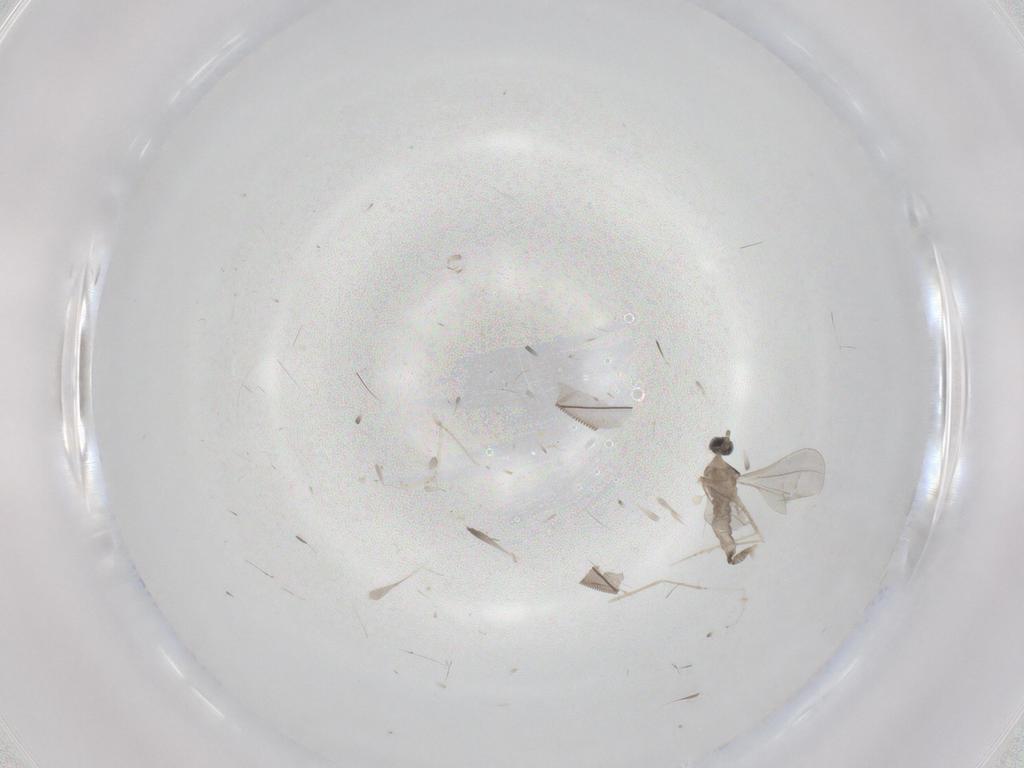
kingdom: Animalia
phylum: Arthropoda
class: Insecta
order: Diptera
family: Cecidomyiidae
